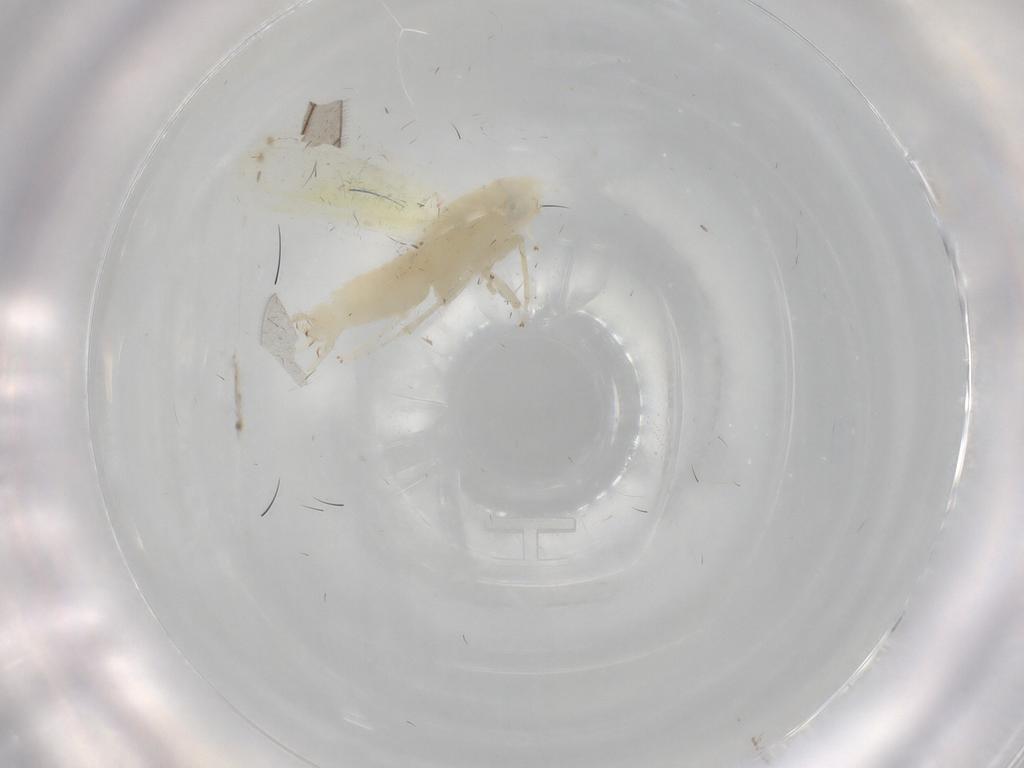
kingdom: Animalia
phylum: Arthropoda
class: Insecta
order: Hemiptera
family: Cicadellidae
